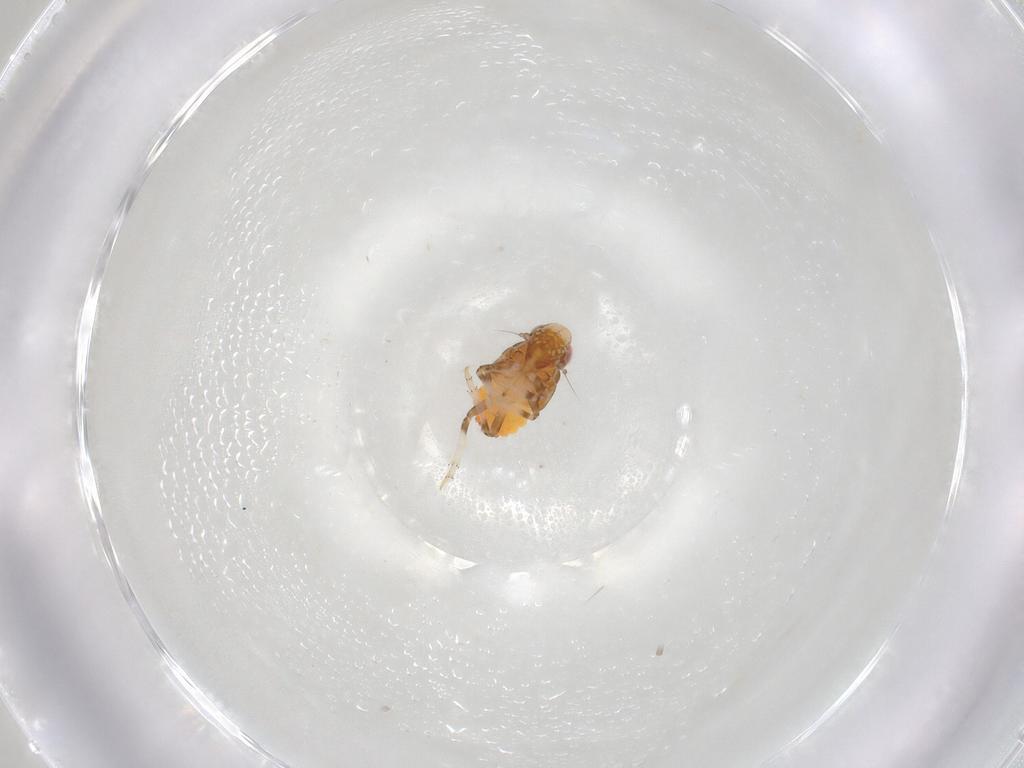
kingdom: Animalia
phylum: Arthropoda
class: Insecta
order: Hemiptera
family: Issidae
